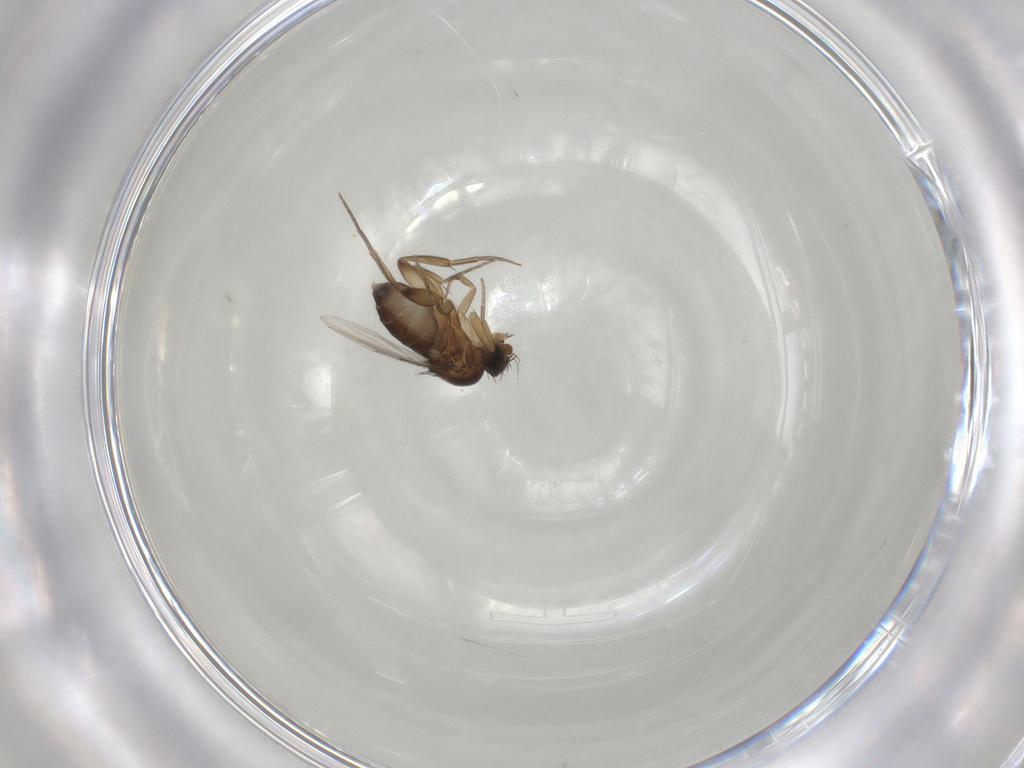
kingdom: Animalia
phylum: Arthropoda
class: Insecta
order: Diptera
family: Phoridae
